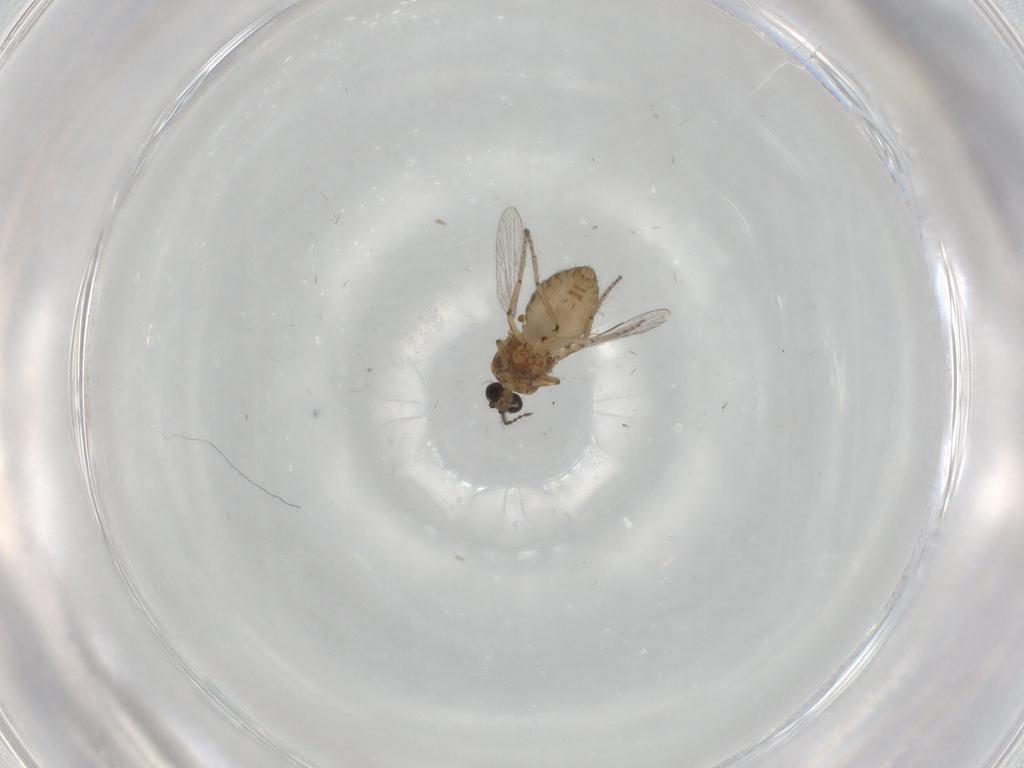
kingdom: Animalia
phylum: Arthropoda
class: Insecta
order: Diptera
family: Ceratopogonidae
